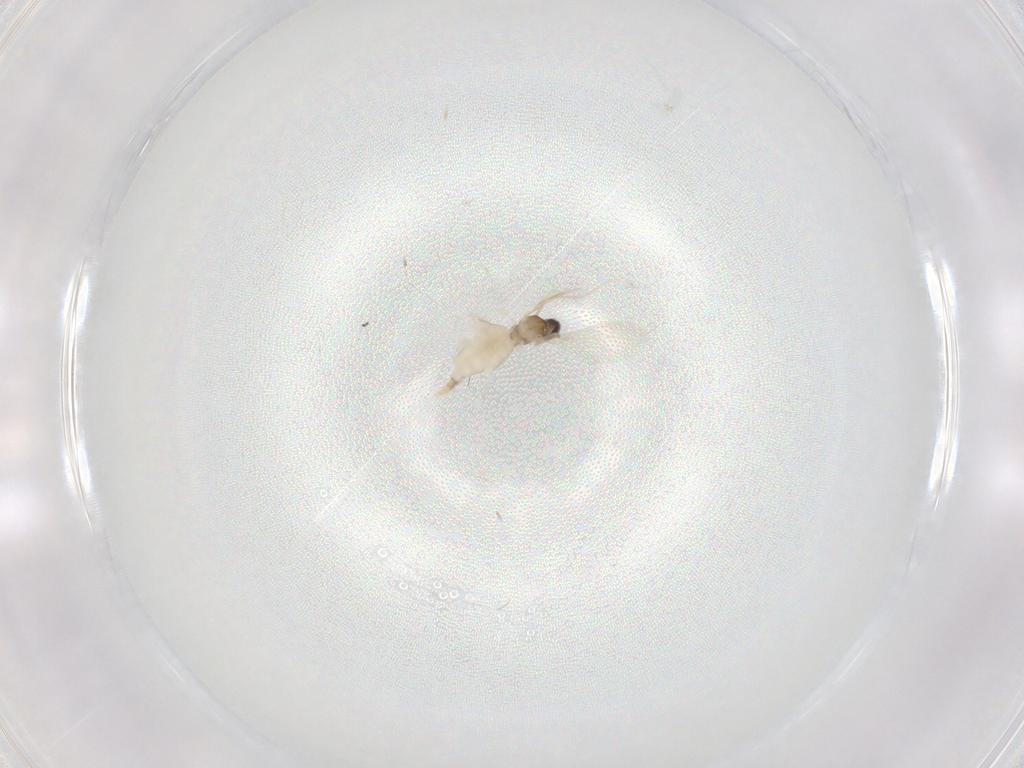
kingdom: Animalia
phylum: Arthropoda
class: Insecta
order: Diptera
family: Cecidomyiidae
